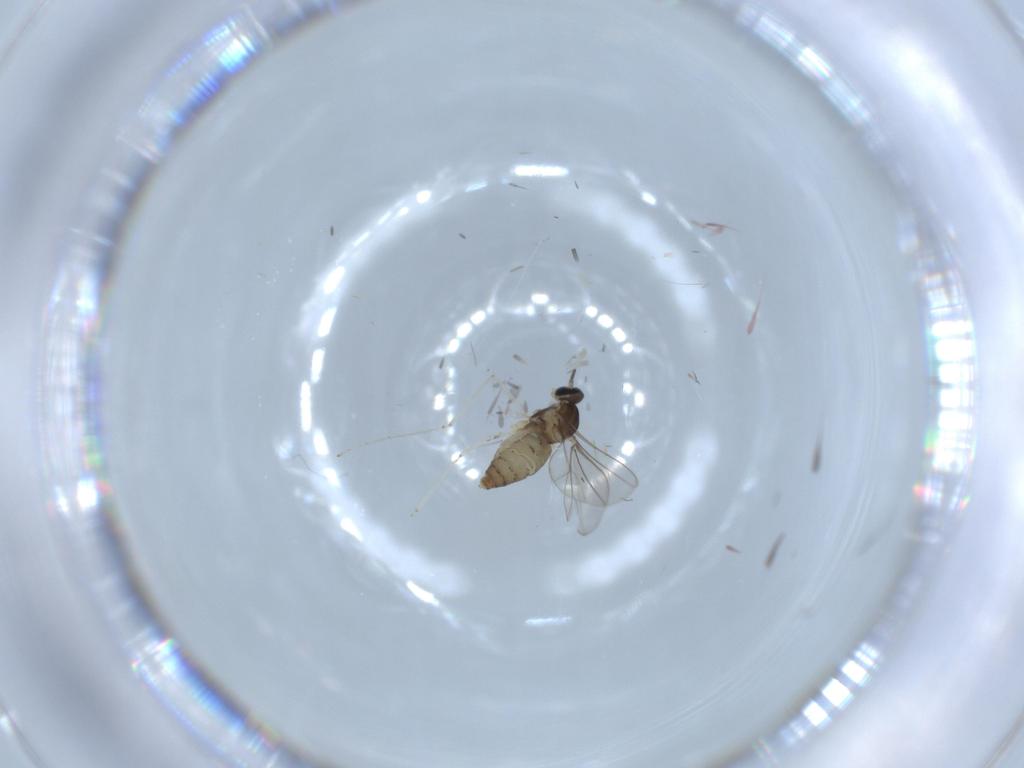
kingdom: Animalia
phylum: Arthropoda
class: Insecta
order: Diptera
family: Cecidomyiidae
